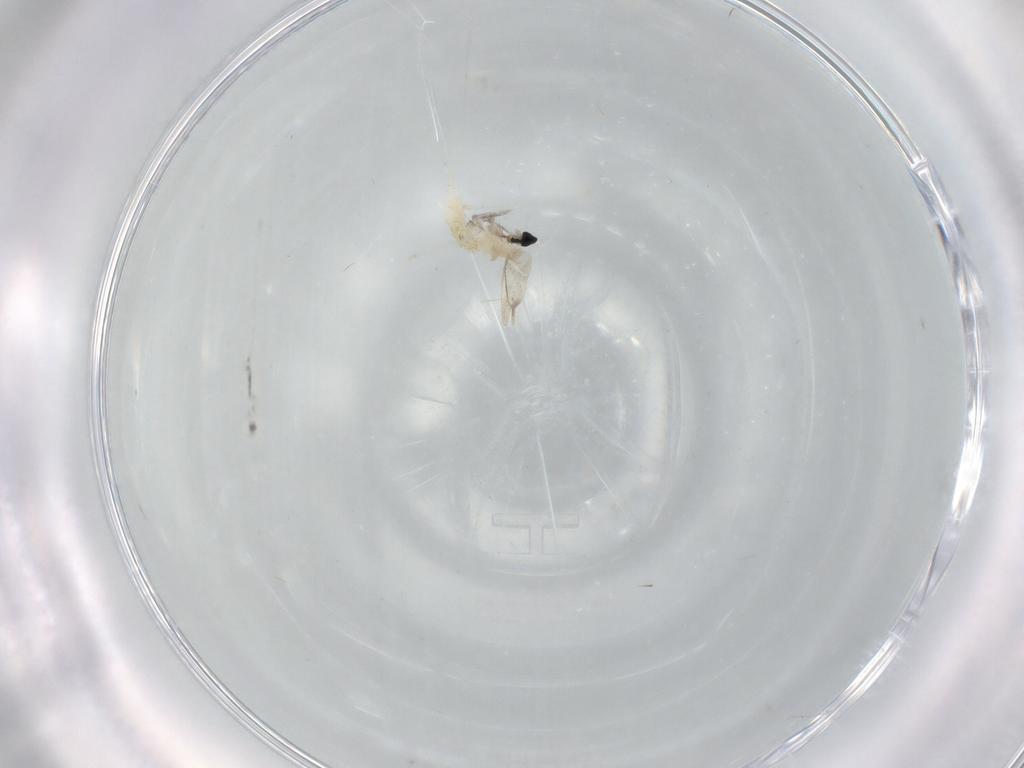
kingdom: Animalia
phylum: Arthropoda
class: Insecta
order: Diptera
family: Cecidomyiidae
